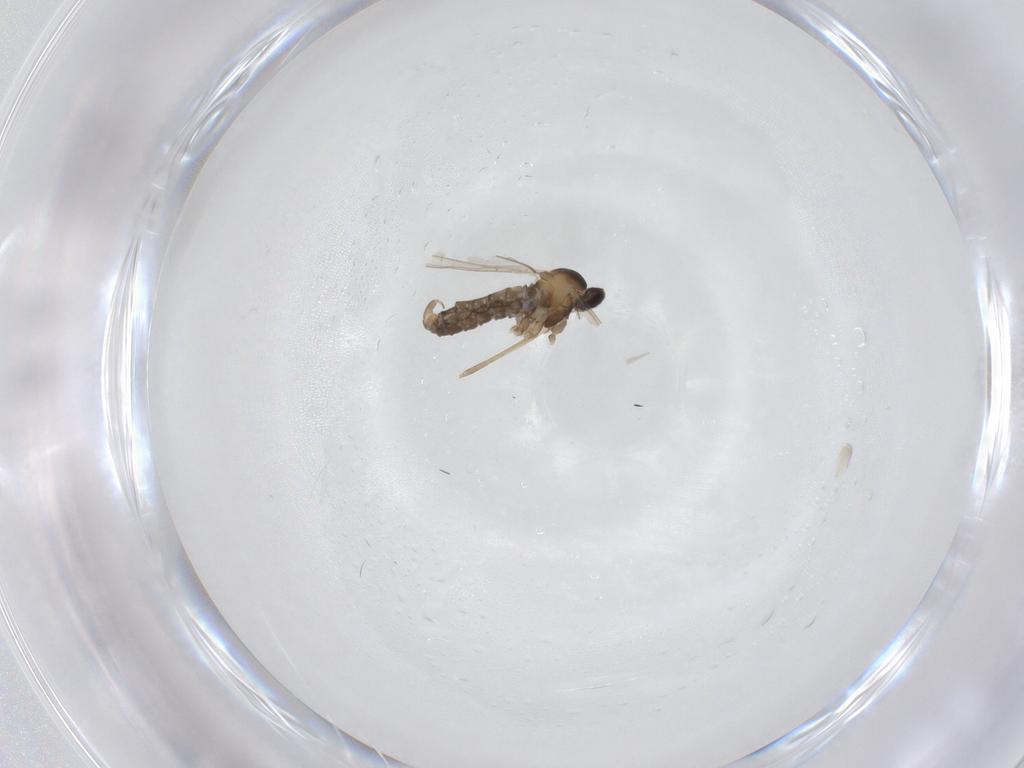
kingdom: Animalia
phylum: Arthropoda
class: Insecta
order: Diptera
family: Cecidomyiidae
